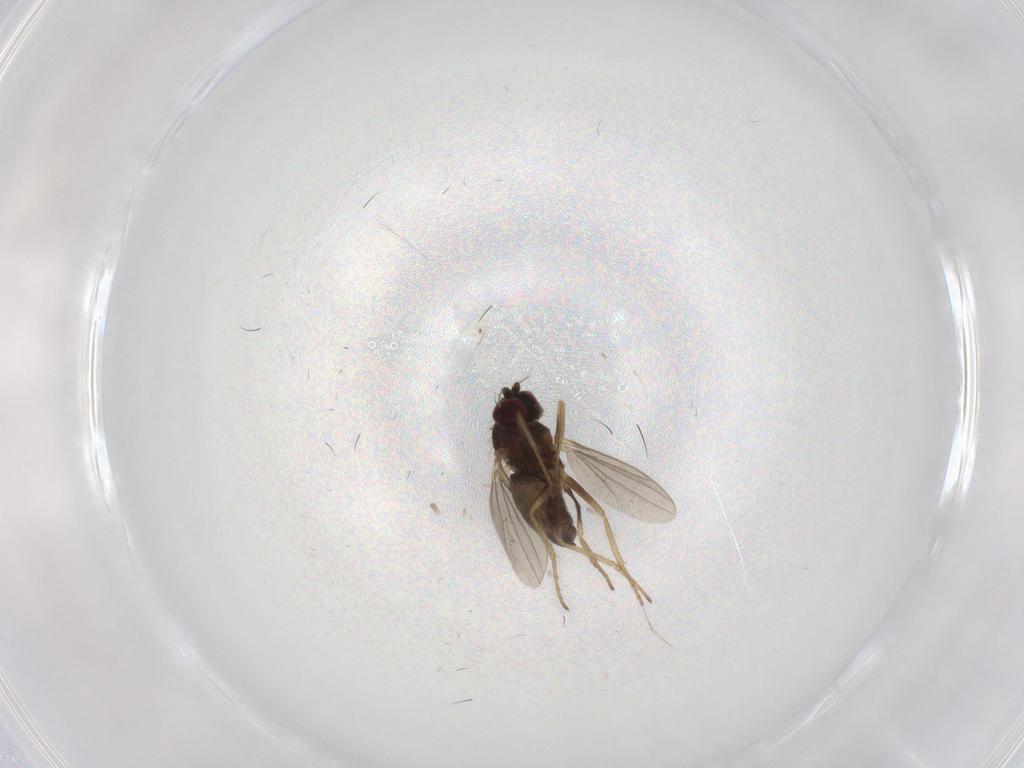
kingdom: Animalia
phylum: Arthropoda
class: Insecta
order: Diptera
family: Dolichopodidae
